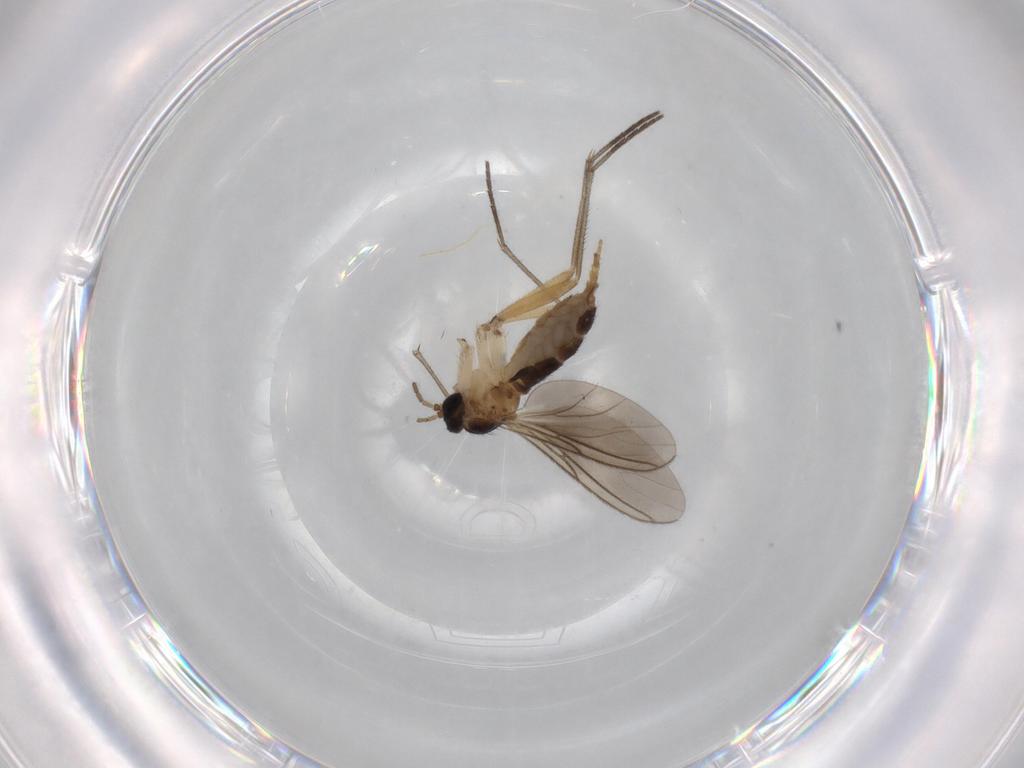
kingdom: Animalia
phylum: Arthropoda
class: Insecta
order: Diptera
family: Sciaridae
